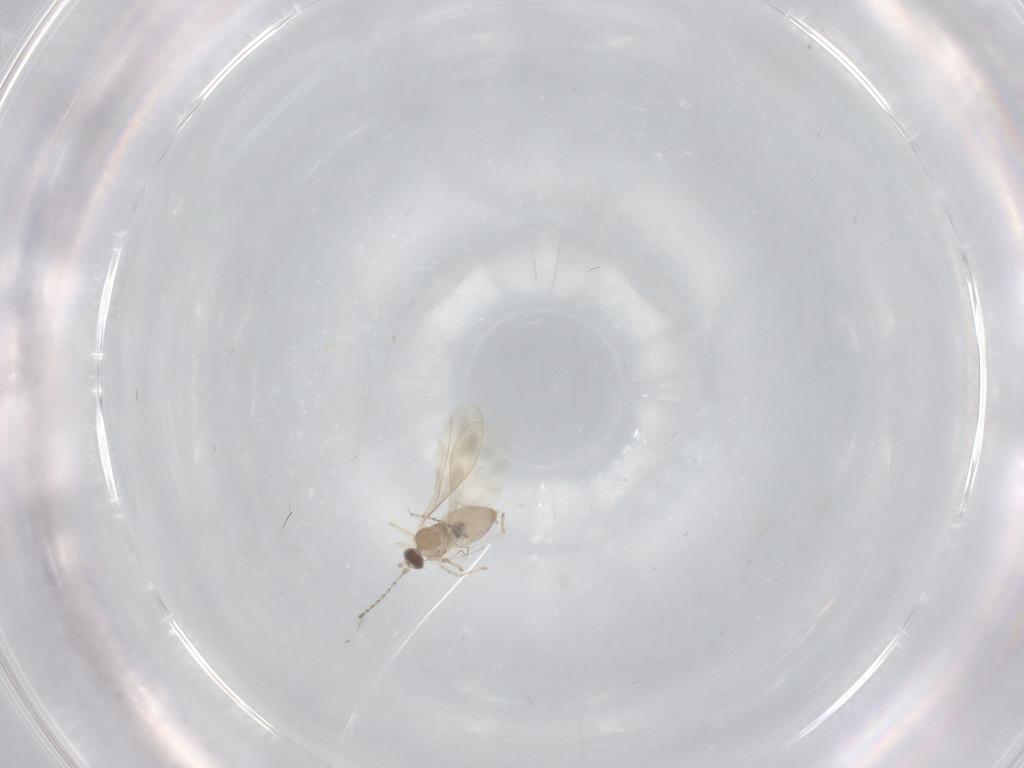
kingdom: Animalia
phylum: Arthropoda
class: Insecta
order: Diptera
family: Cecidomyiidae
